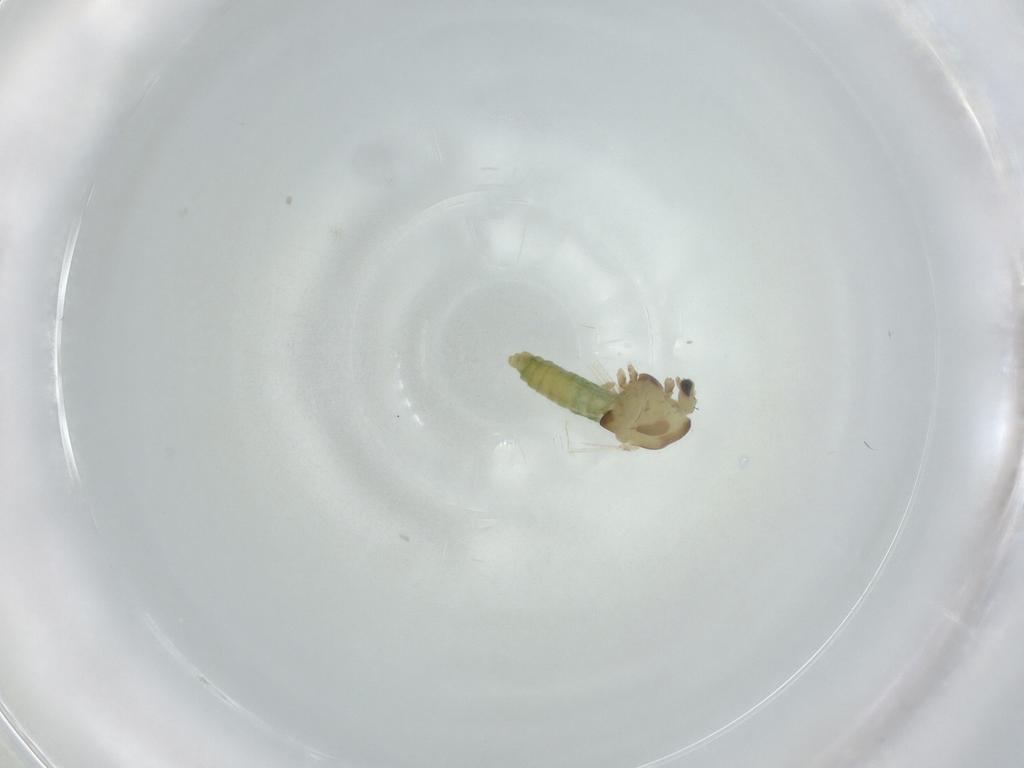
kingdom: Animalia
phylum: Arthropoda
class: Insecta
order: Diptera
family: Chironomidae
